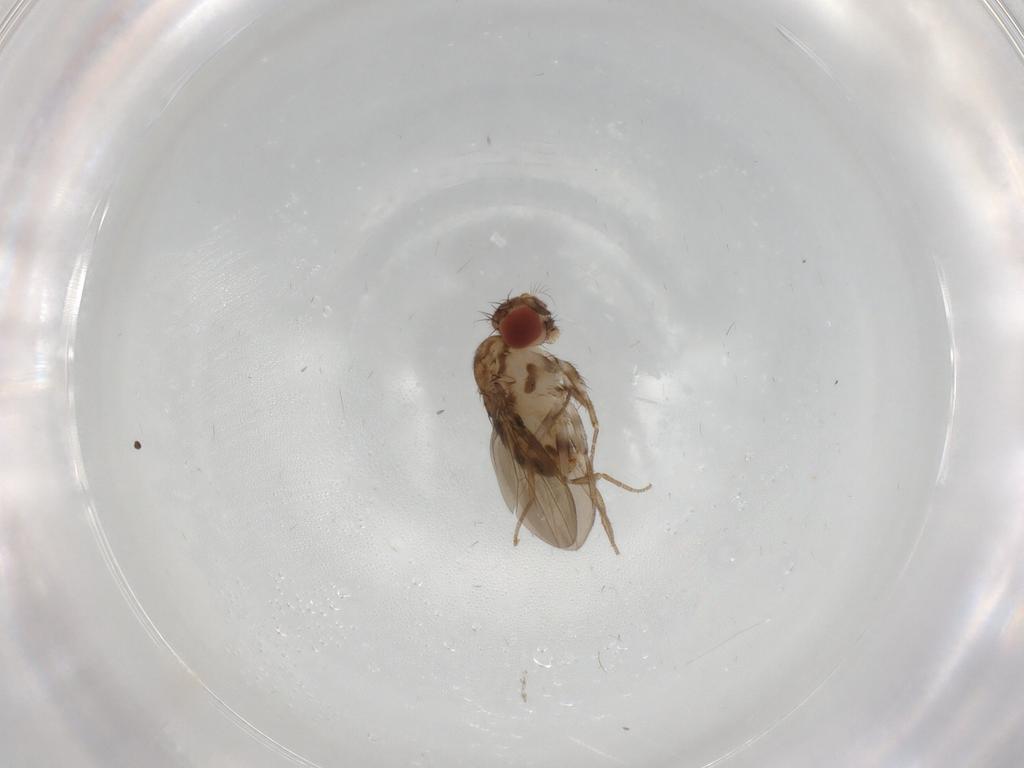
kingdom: Animalia
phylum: Arthropoda
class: Insecta
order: Diptera
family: Drosophilidae
